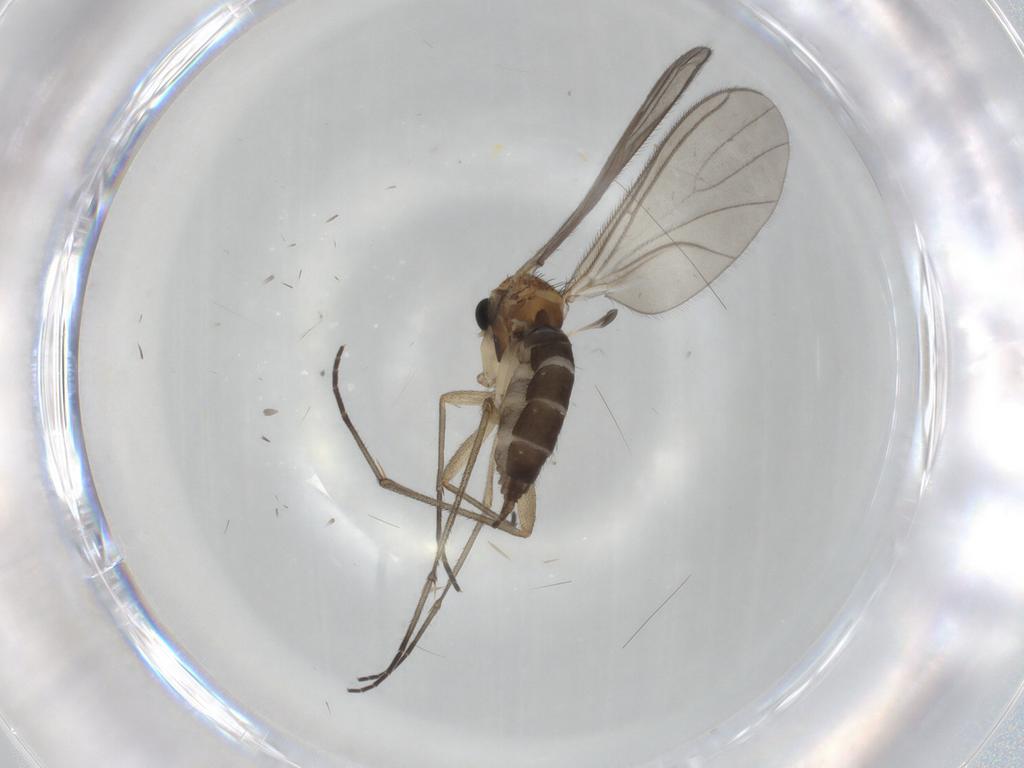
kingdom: Animalia
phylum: Arthropoda
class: Insecta
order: Diptera
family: Sciaridae
